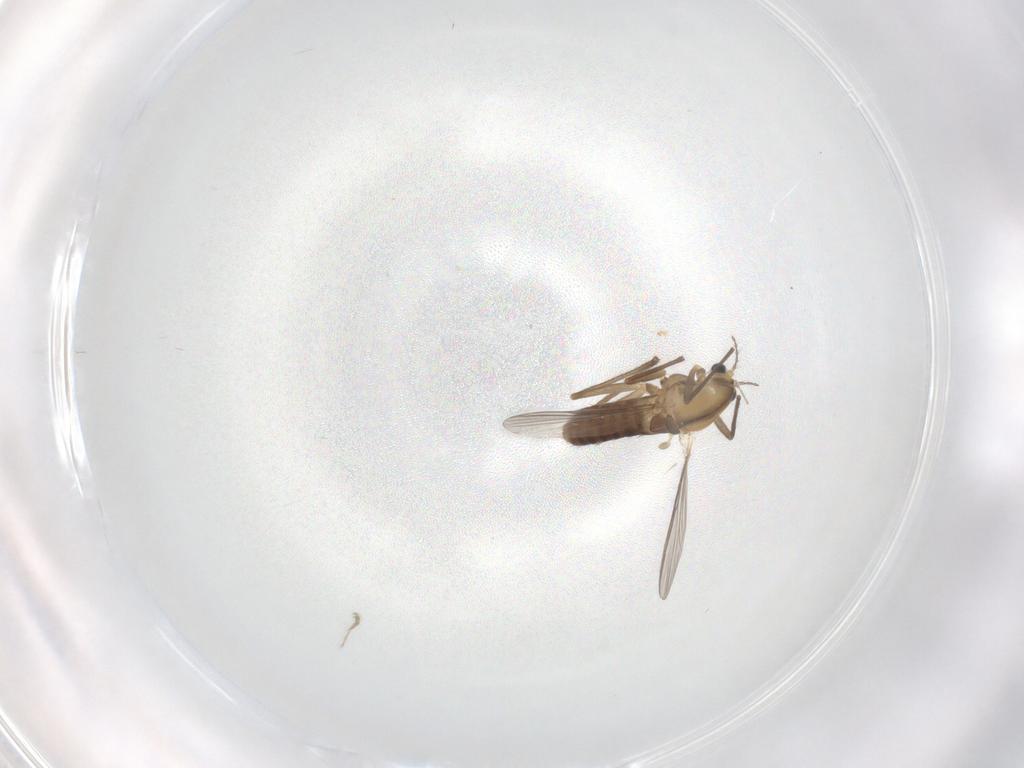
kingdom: Animalia
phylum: Arthropoda
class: Insecta
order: Diptera
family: Chironomidae
